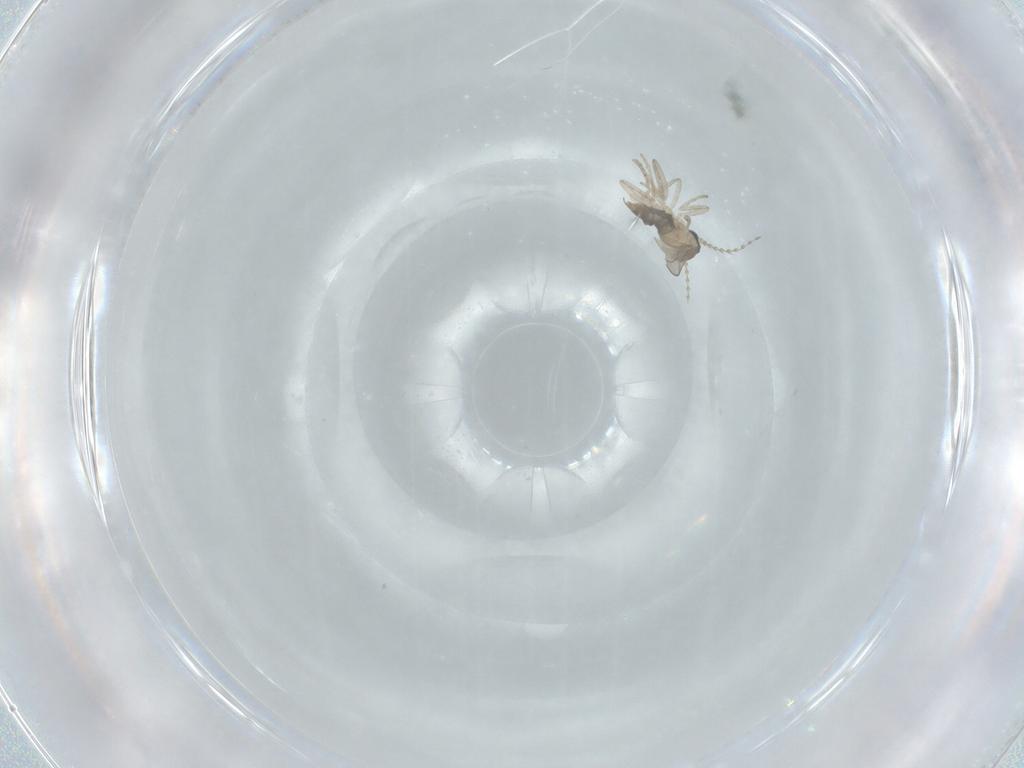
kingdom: Animalia
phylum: Arthropoda
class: Insecta
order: Diptera
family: Cecidomyiidae
